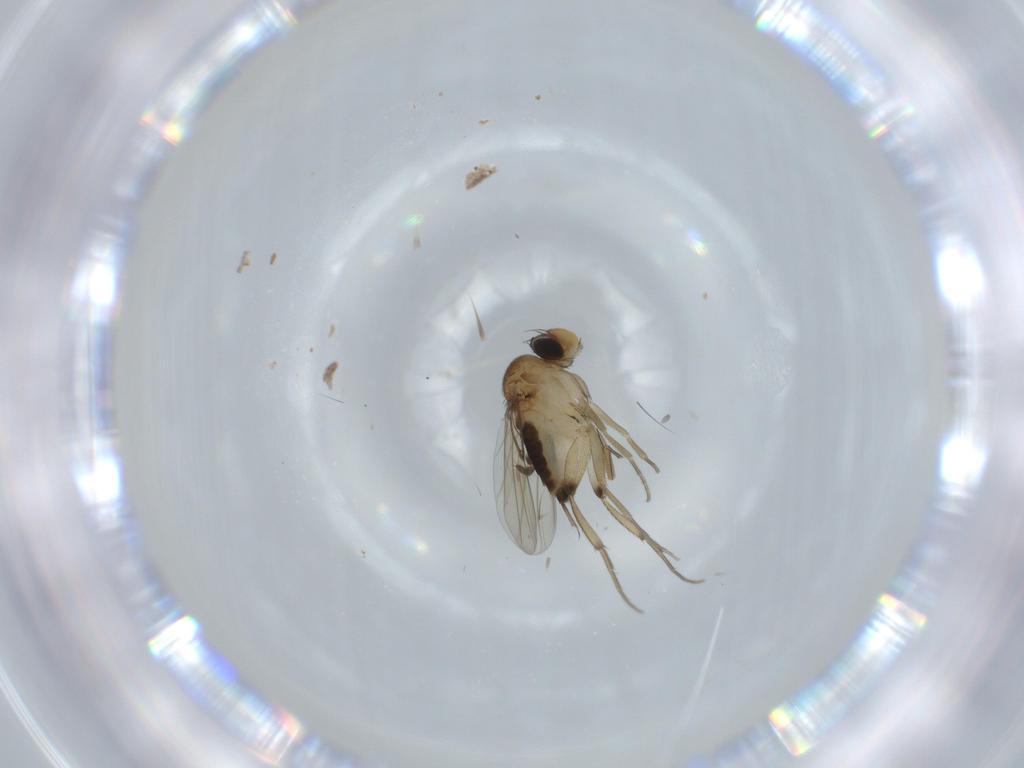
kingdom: Animalia
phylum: Arthropoda
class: Insecta
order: Diptera
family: Limoniidae
